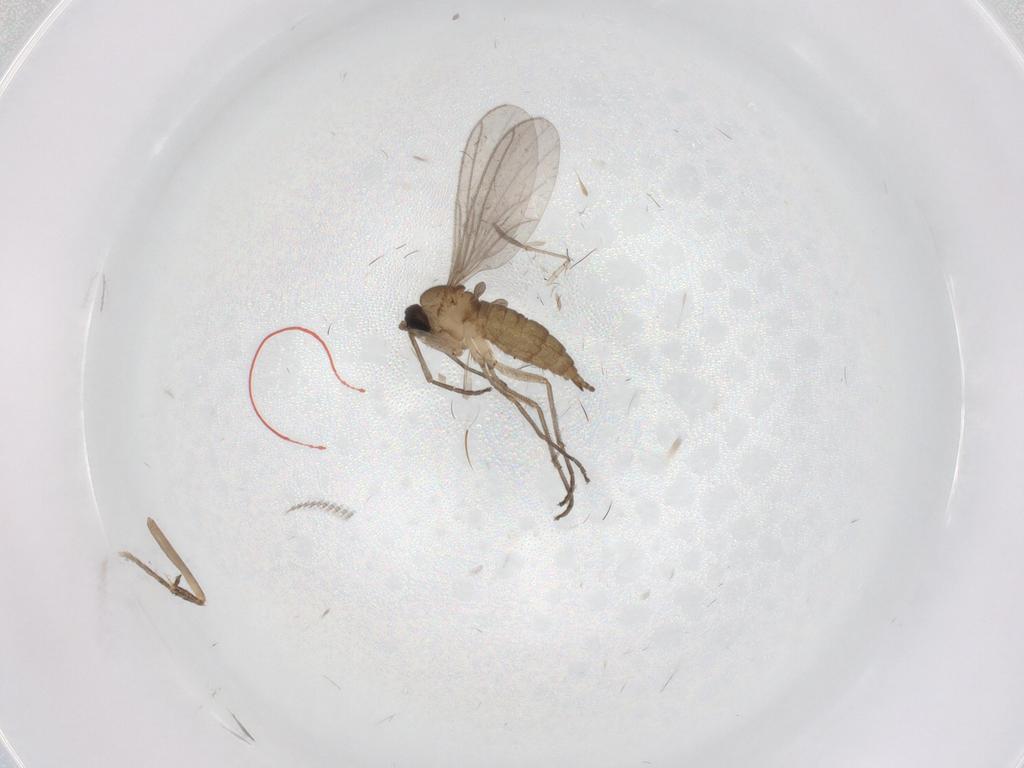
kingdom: Animalia
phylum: Arthropoda
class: Insecta
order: Diptera
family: Sciaridae
